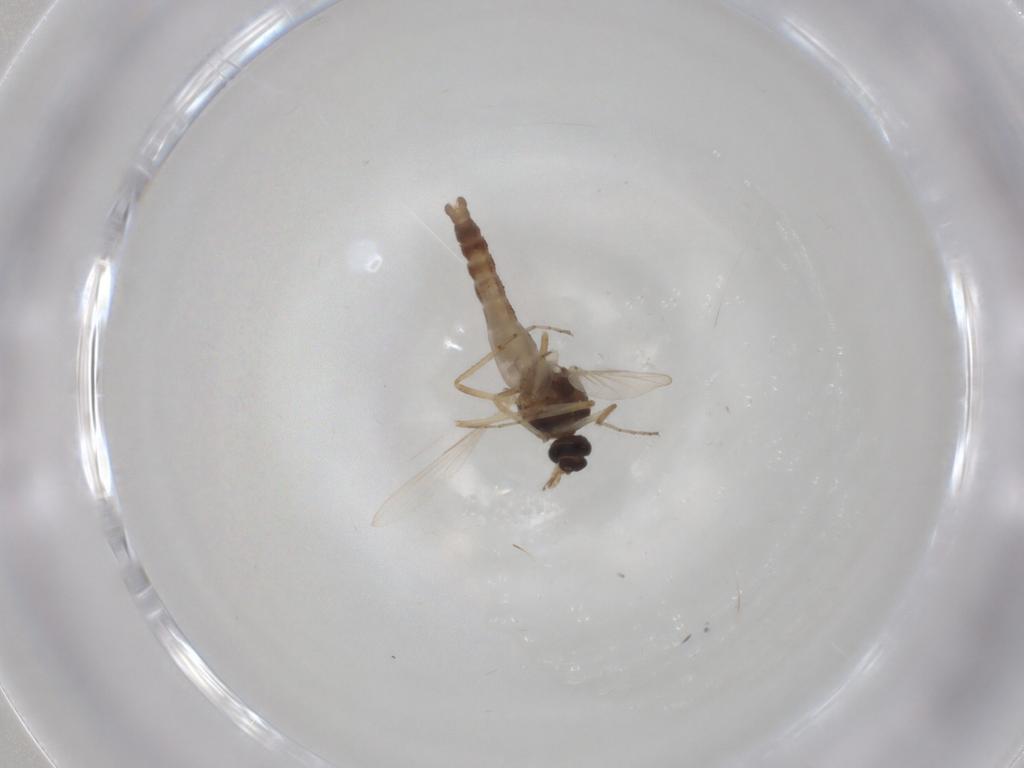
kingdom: Animalia
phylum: Arthropoda
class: Insecta
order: Diptera
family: Ceratopogonidae
